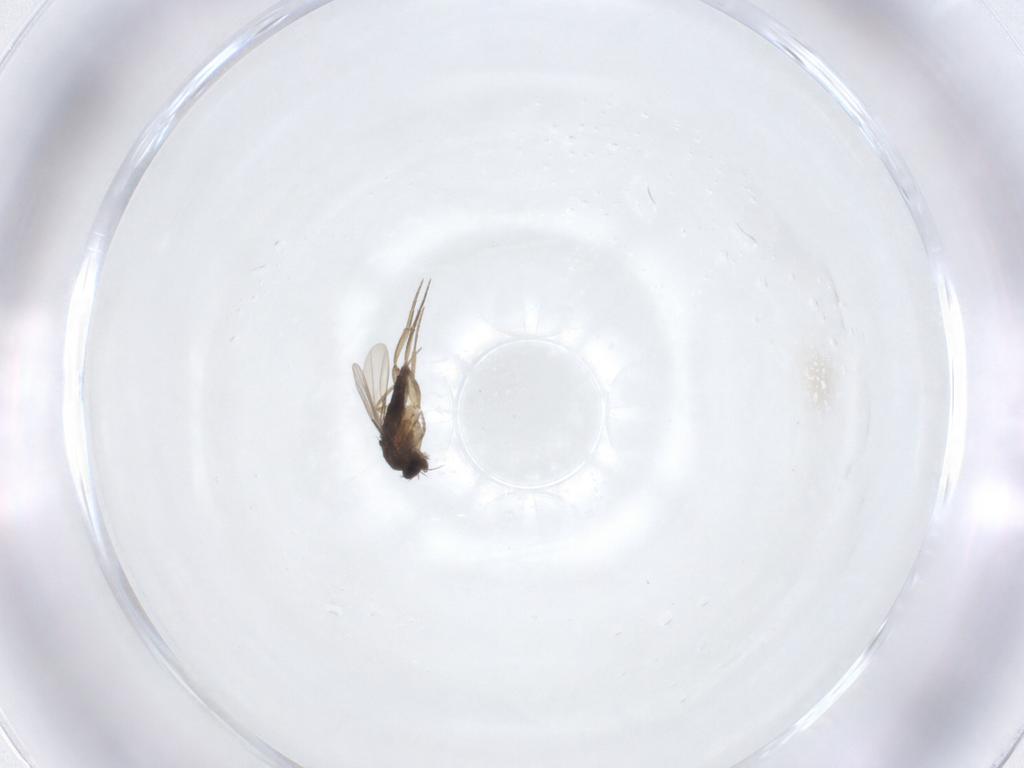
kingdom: Animalia
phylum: Arthropoda
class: Insecta
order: Diptera
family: Phoridae
